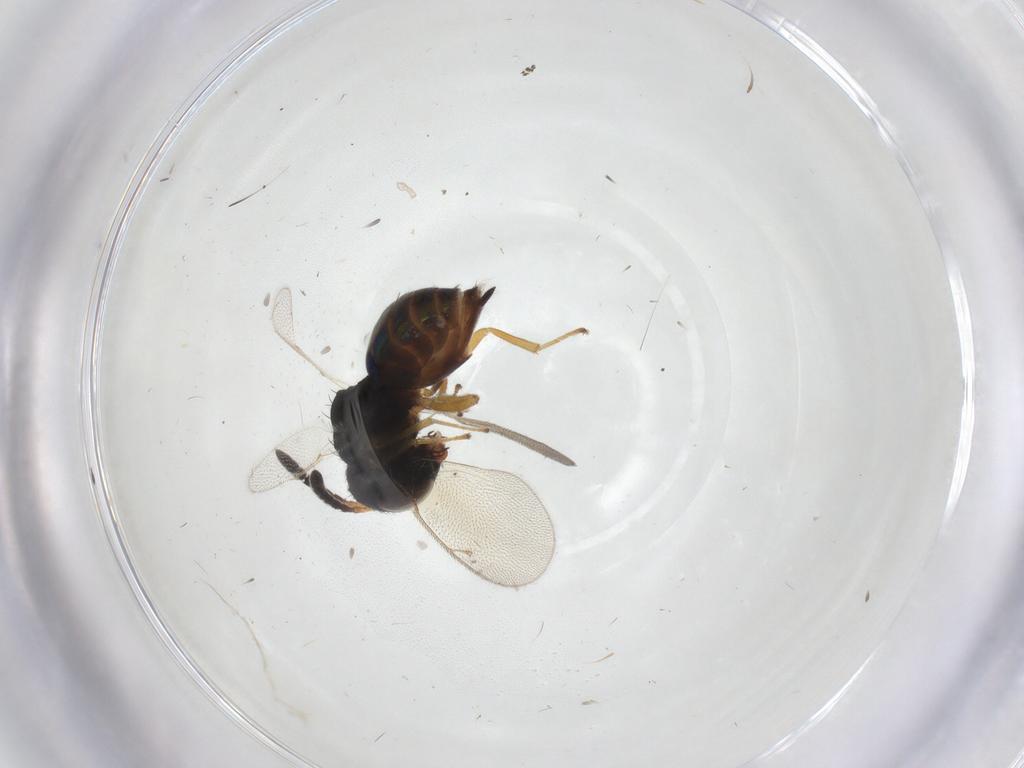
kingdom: Animalia
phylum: Arthropoda
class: Insecta
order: Hymenoptera
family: Pteromalidae
